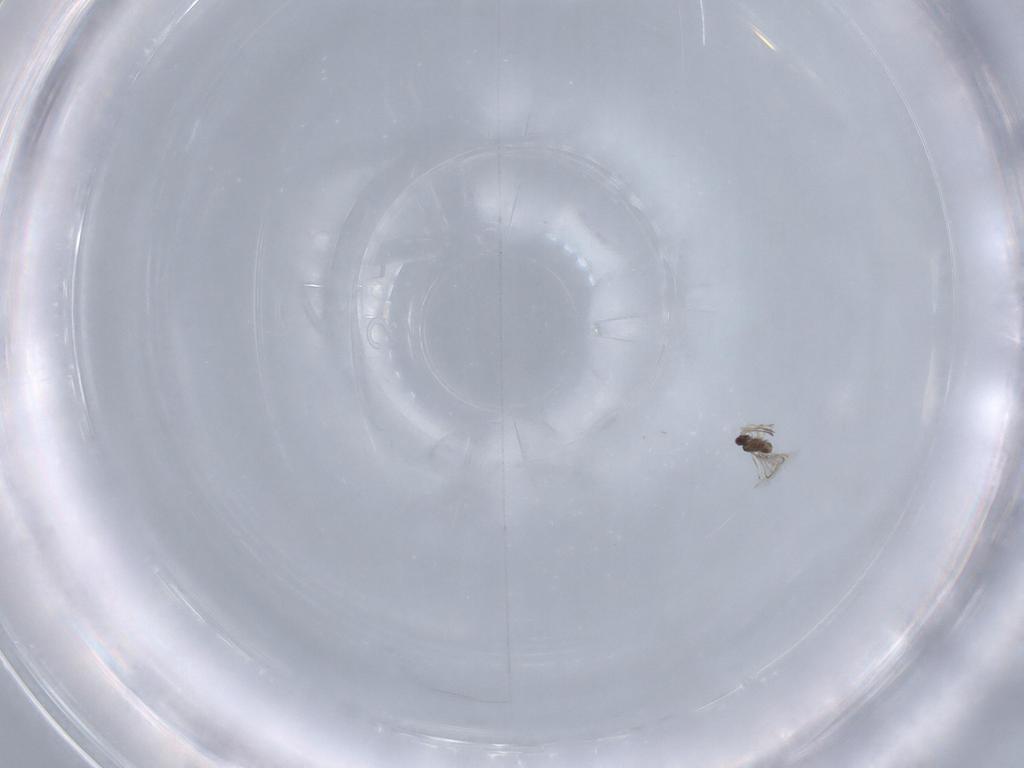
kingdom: Animalia
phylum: Arthropoda
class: Insecta
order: Hymenoptera
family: Mymaridae
